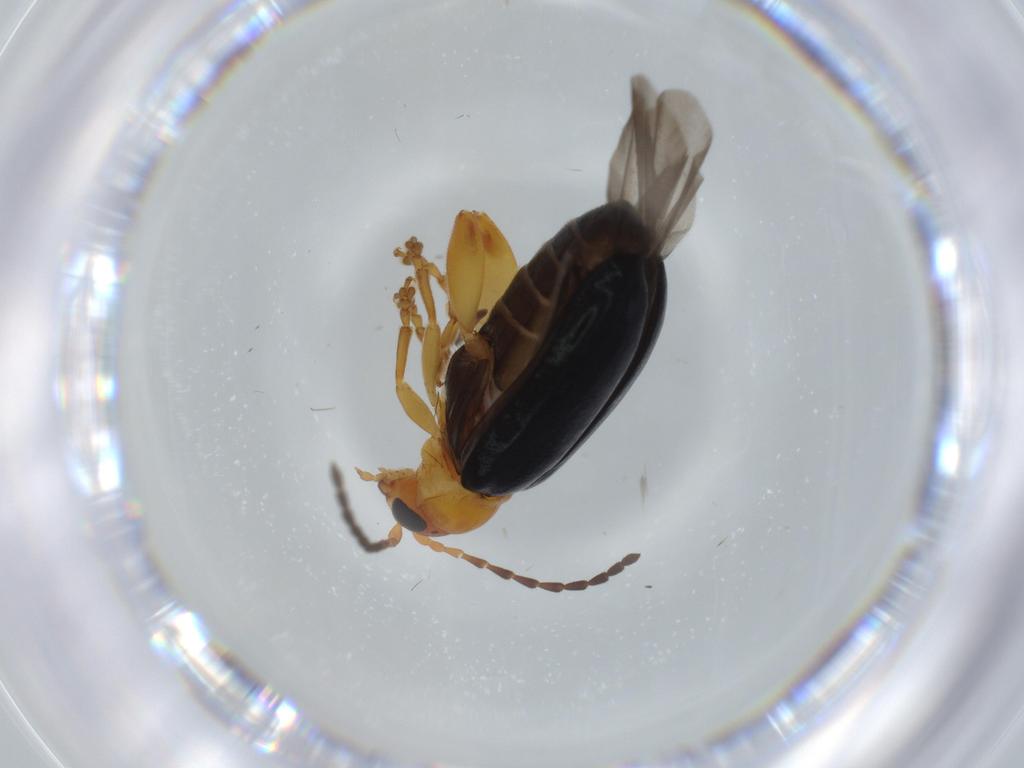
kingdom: Animalia
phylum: Arthropoda
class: Insecta
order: Coleoptera
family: Chrysomelidae
